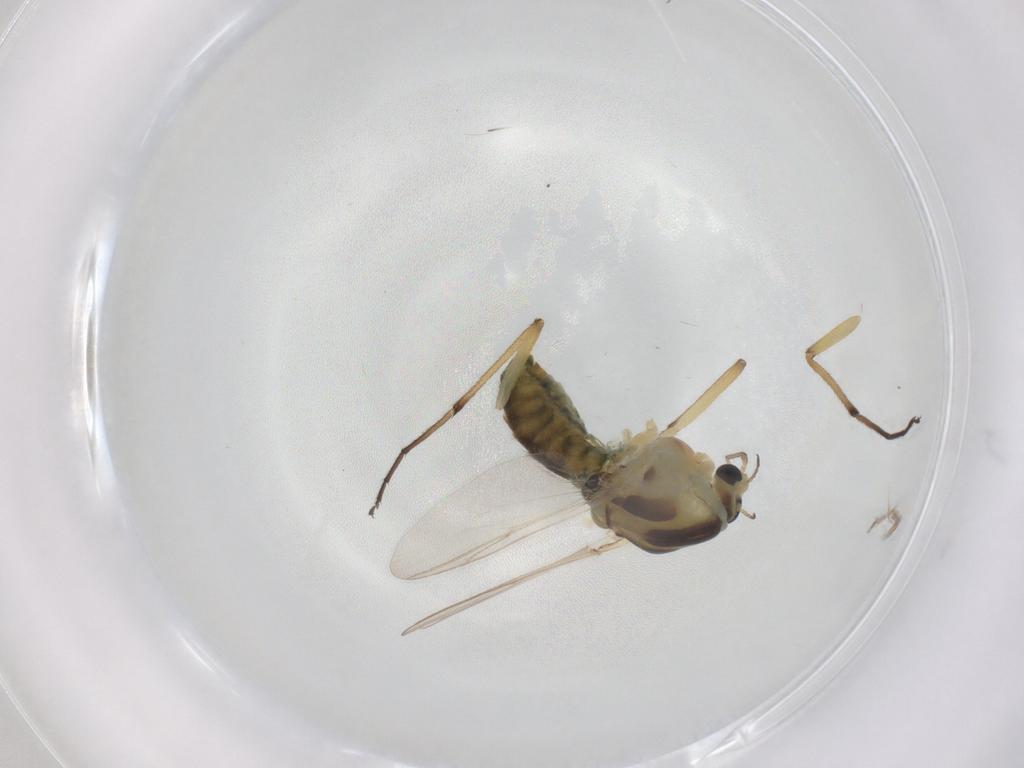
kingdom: Animalia
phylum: Arthropoda
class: Insecta
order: Diptera
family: Chironomidae
